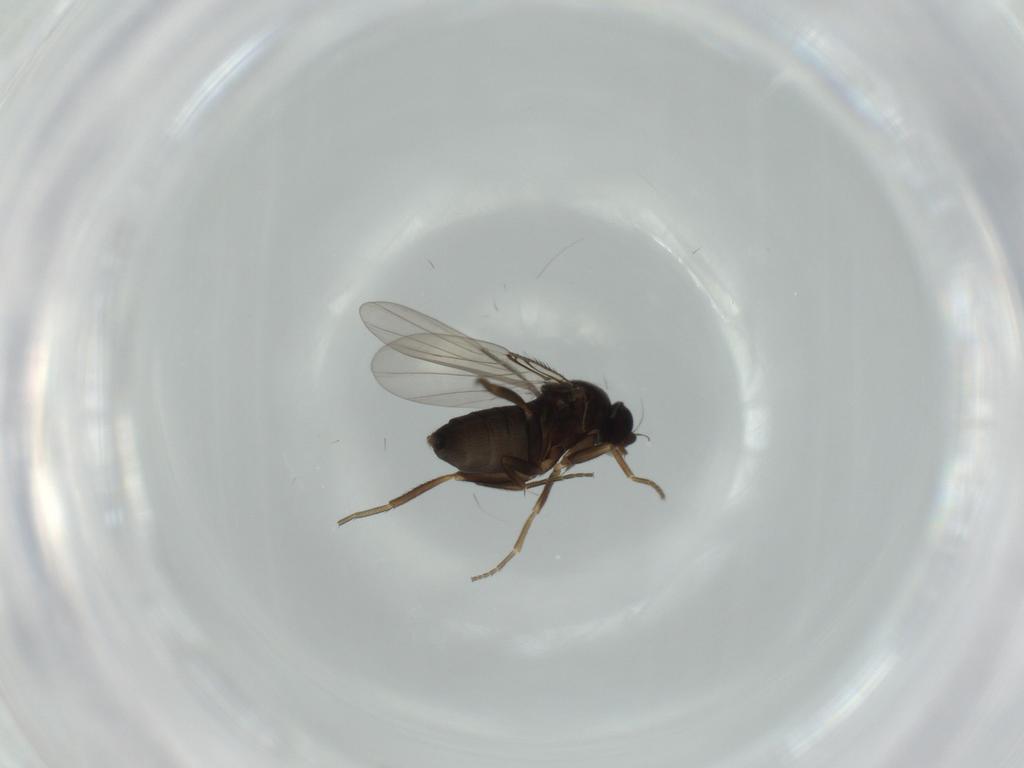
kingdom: Animalia
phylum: Arthropoda
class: Insecta
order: Diptera
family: Phoridae
